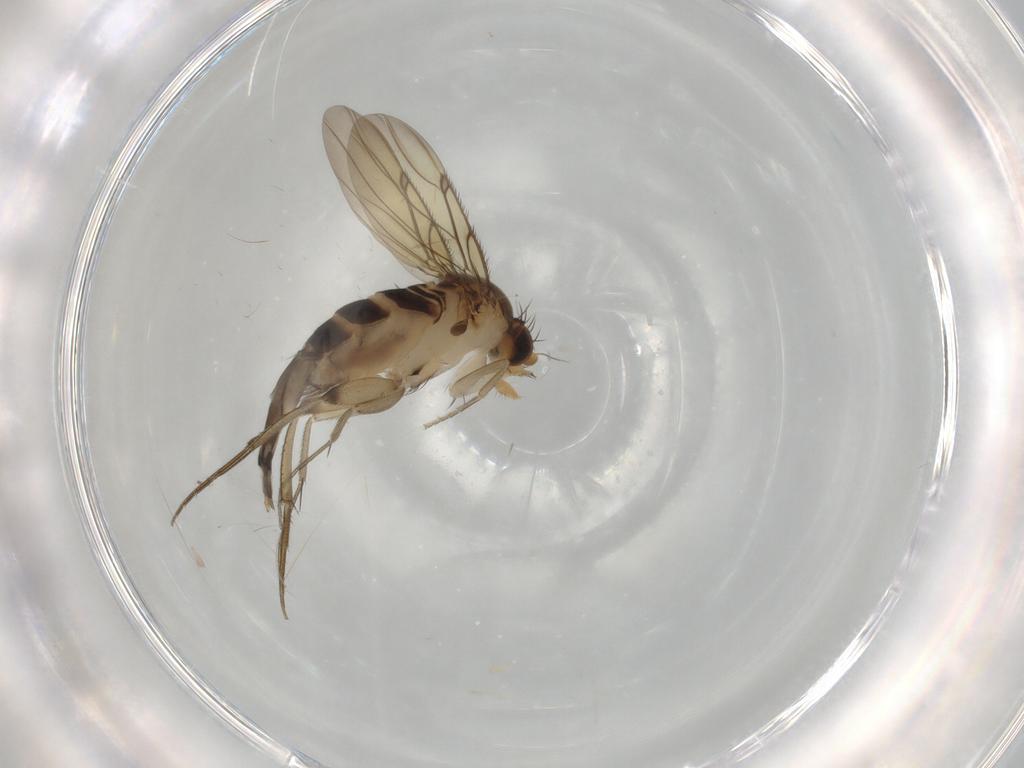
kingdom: Animalia
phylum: Arthropoda
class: Insecta
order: Diptera
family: Phoridae
